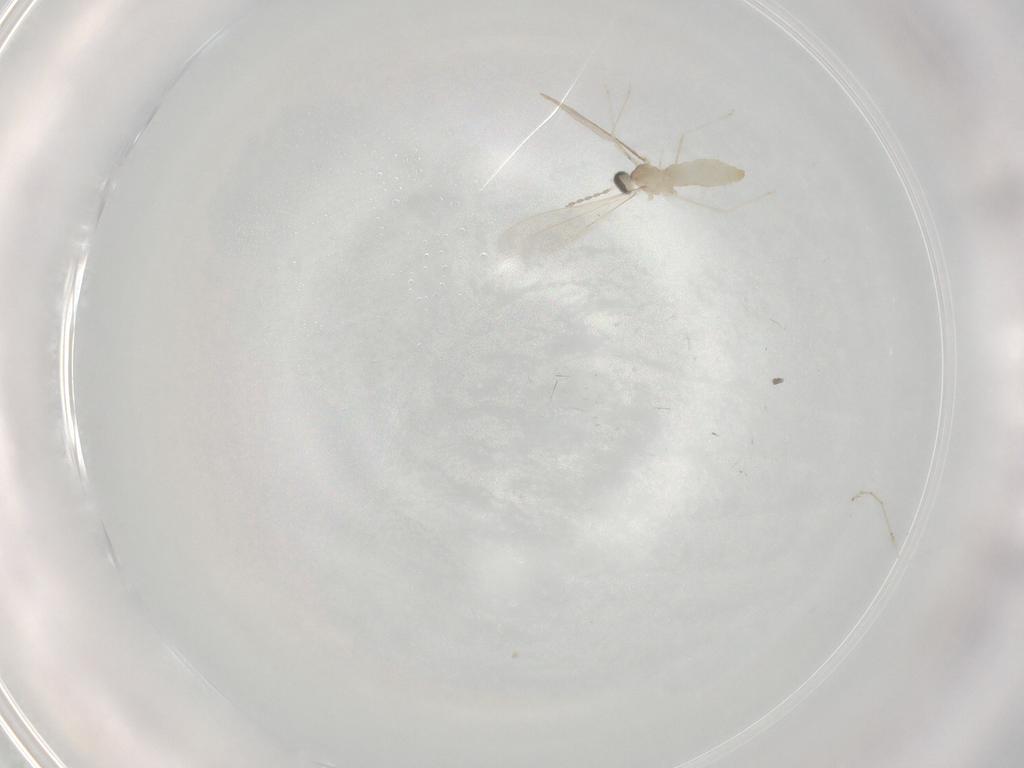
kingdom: Animalia
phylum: Arthropoda
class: Insecta
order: Diptera
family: Cecidomyiidae
